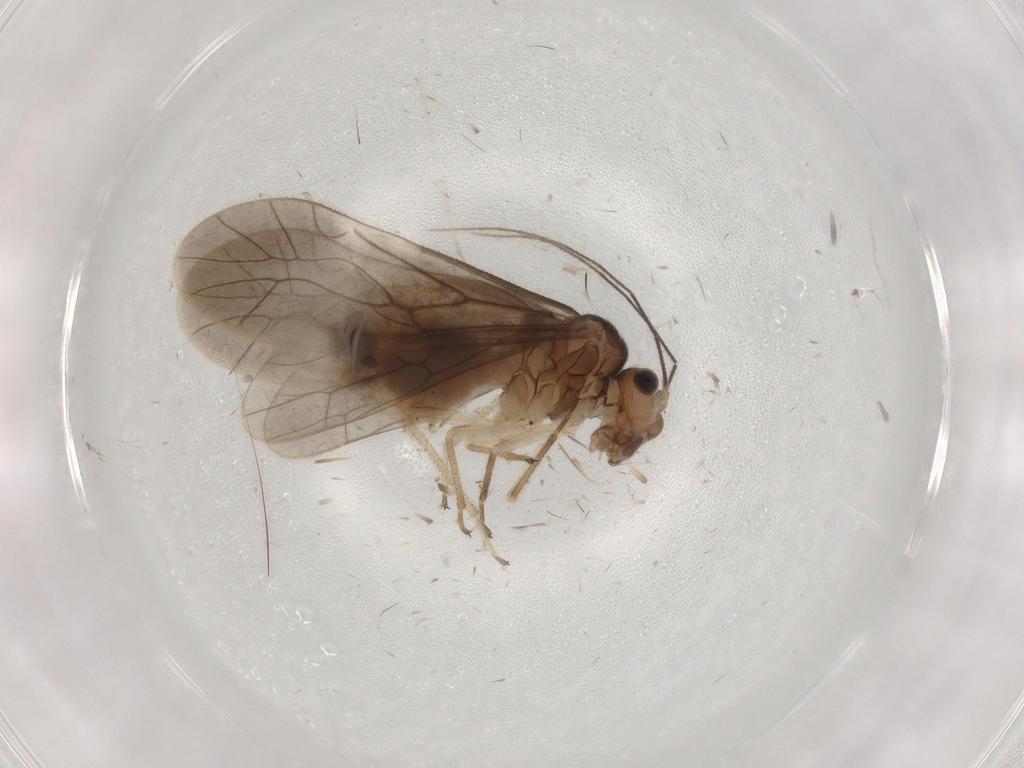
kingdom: Animalia
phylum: Arthropoda
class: Insecta
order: Psocodea
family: Caeciliusidae
